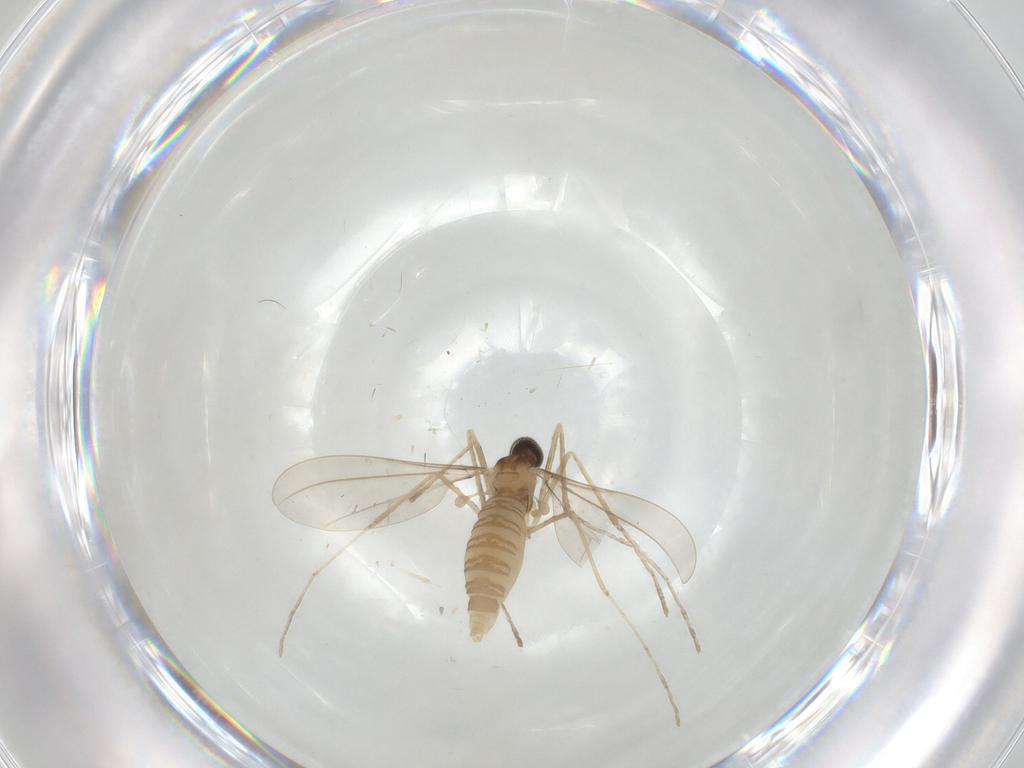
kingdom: Animalia
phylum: Arthropoda
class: Insecta
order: Diptera
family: Cecidomyiidae
